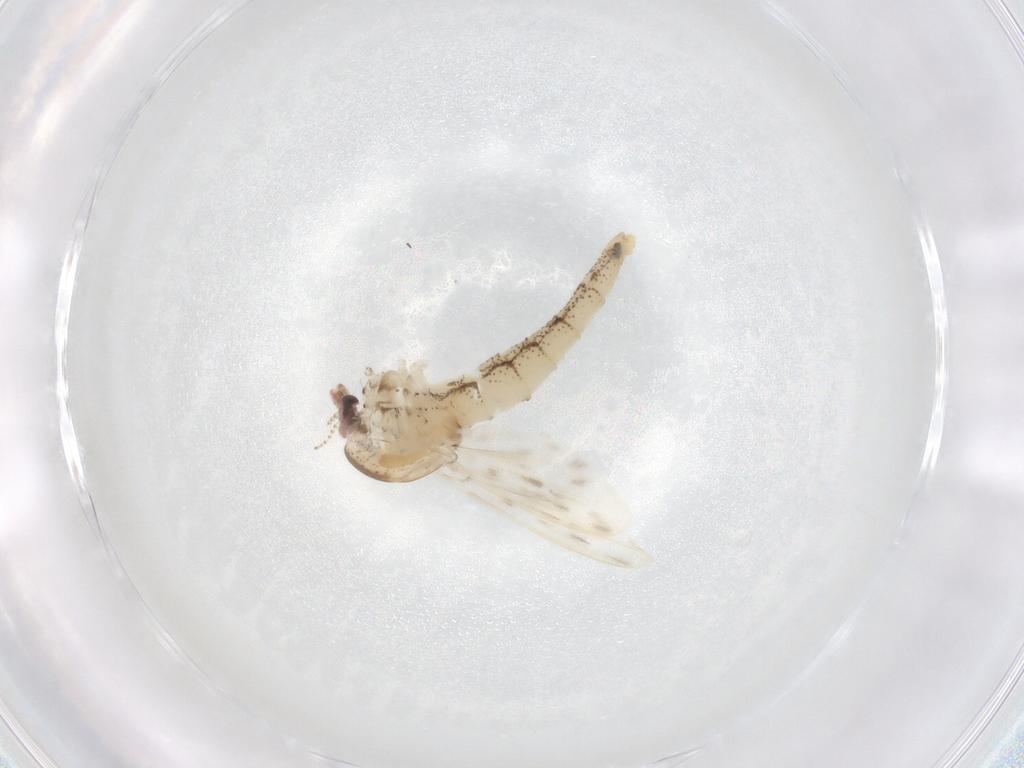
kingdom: Animalia
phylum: Arthropoda
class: Insecta
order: Diptera
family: Chaoboridae
